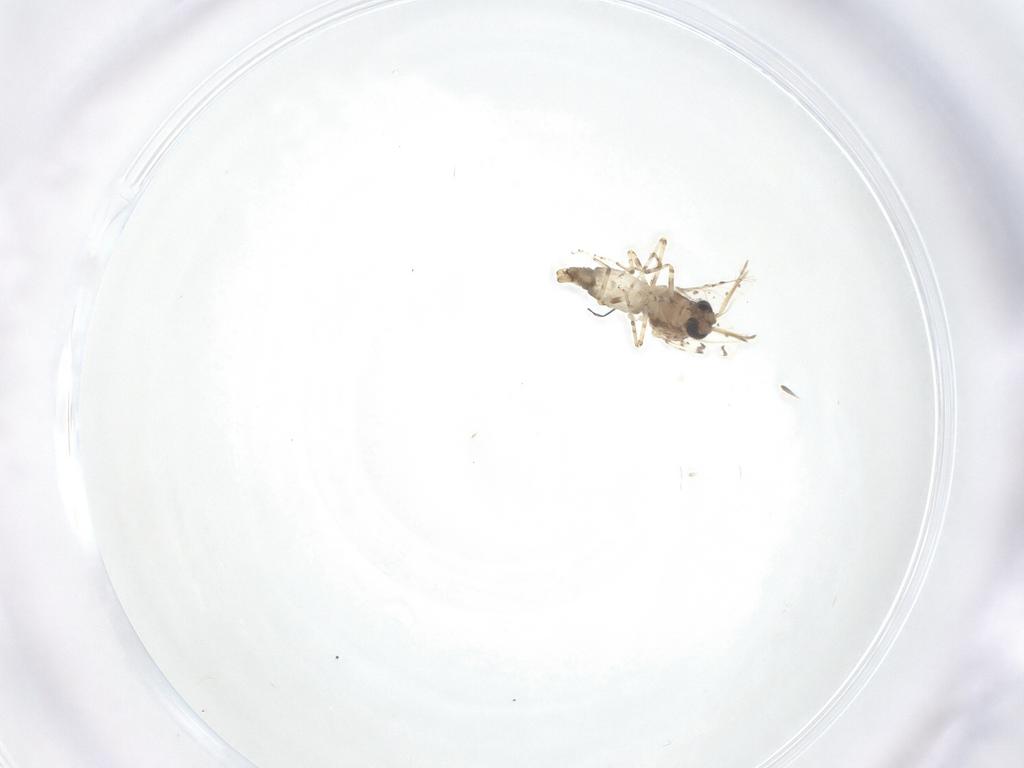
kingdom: Animalia
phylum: Arthropoda
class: Insecta
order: Diptera
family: Ceratopogonidae
